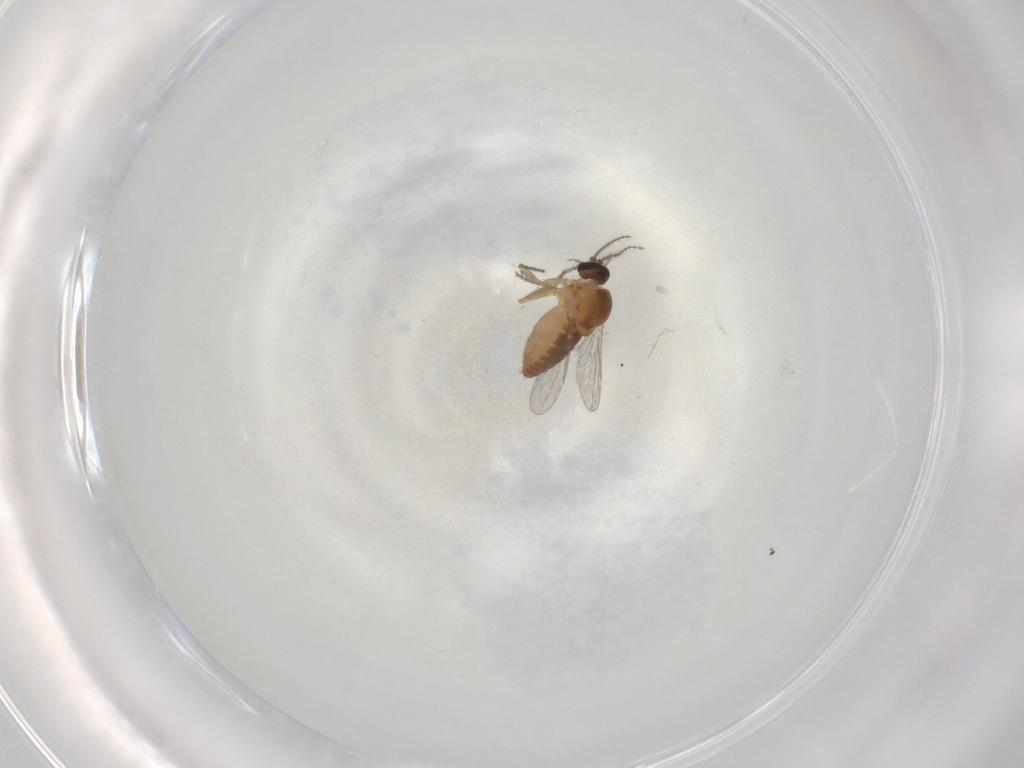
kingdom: Animalia
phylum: Arthropoda
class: Insecta
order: Diptera
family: Ceratopogonidae
